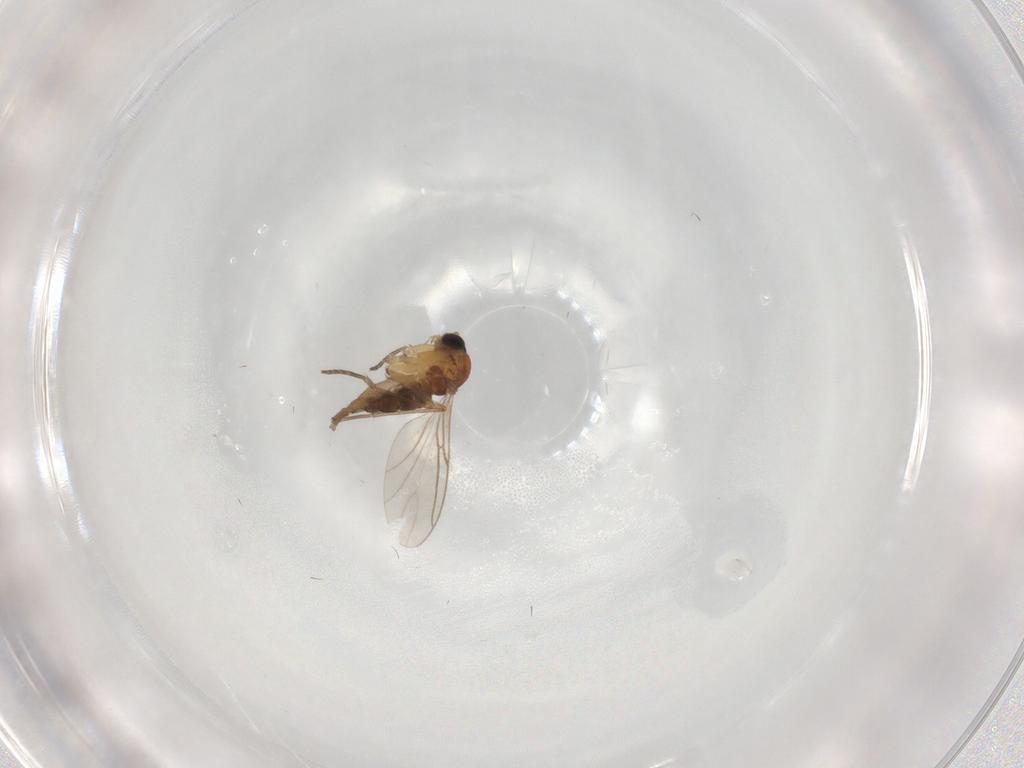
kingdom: Animalia
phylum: Arthropoda
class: Insecta
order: Diptera
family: Sciaridae
